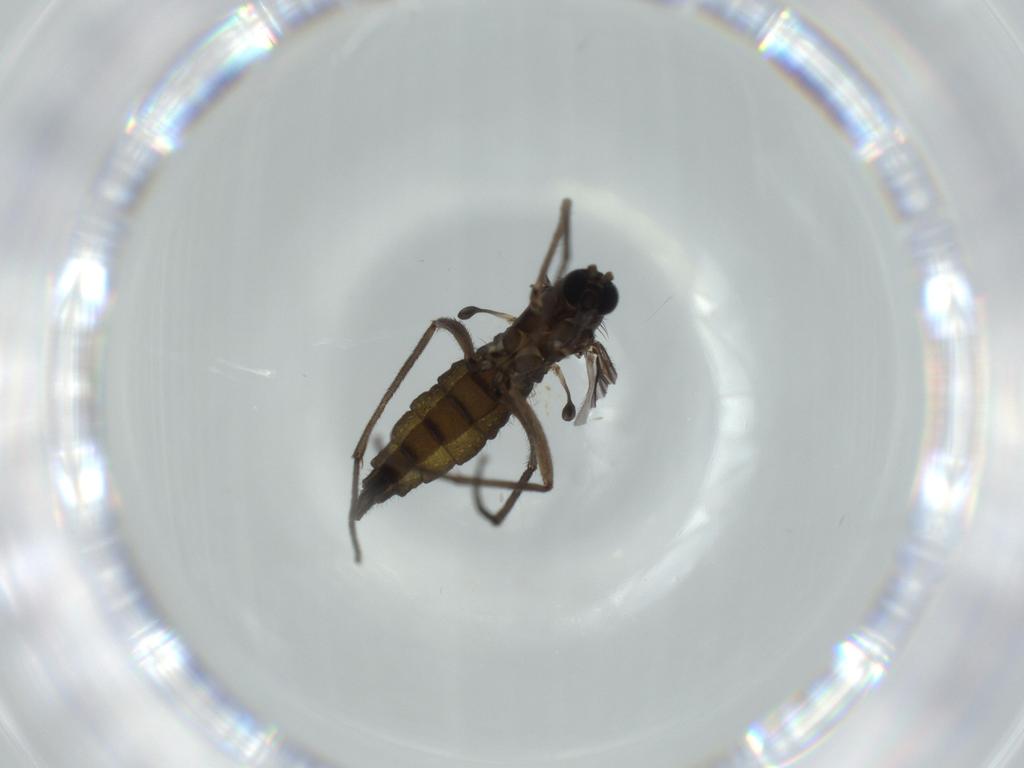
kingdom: Animalia
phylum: Arthropoda
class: Insecta
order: Diptera
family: Sciaridae
